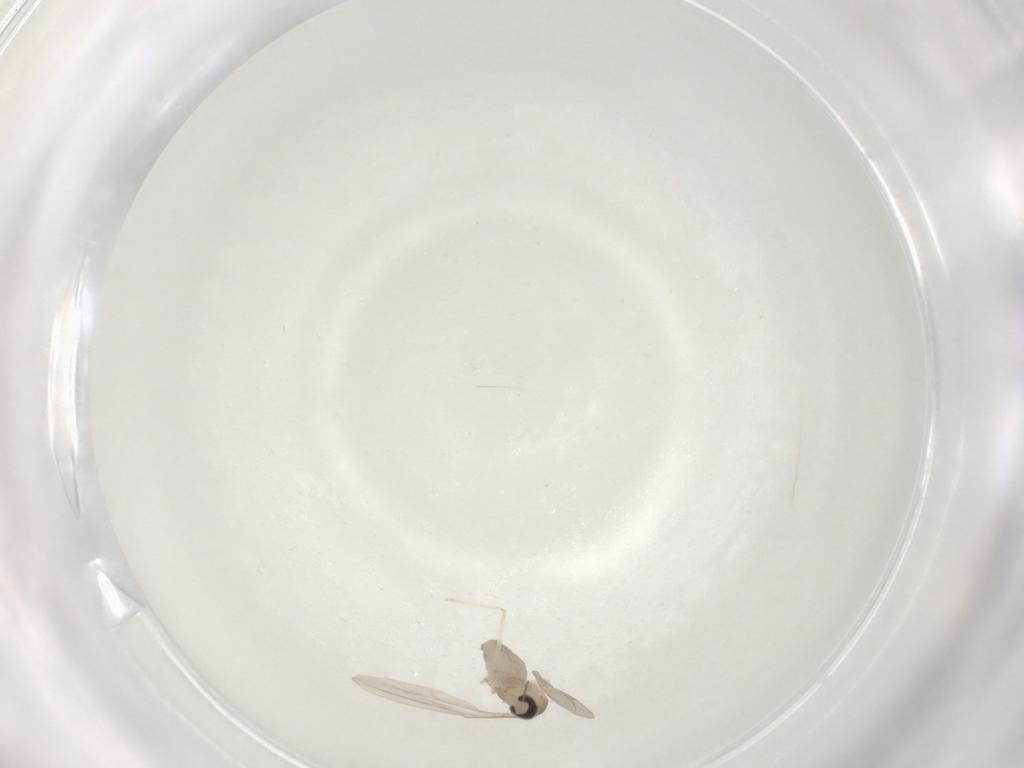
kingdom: Animalia
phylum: Arthropoda
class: Insecta
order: Diptera
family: Cecidomyiidae
